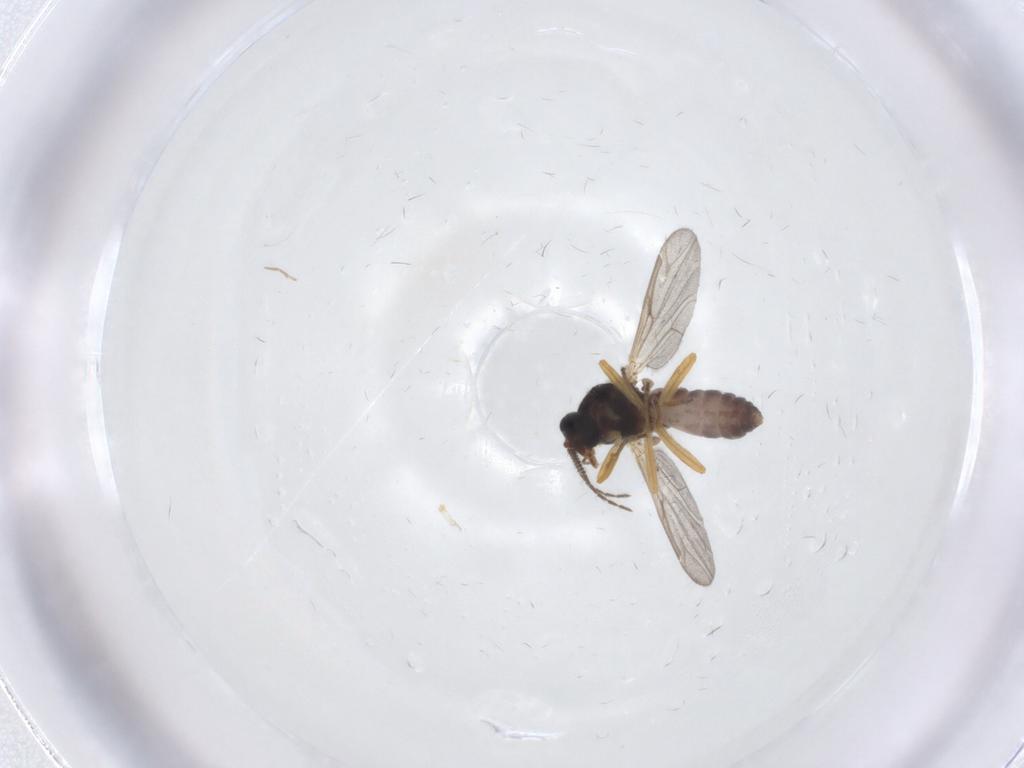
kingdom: Animalia
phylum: Arthropoda
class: Insecta
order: Diptera
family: Ceratopogonidae
